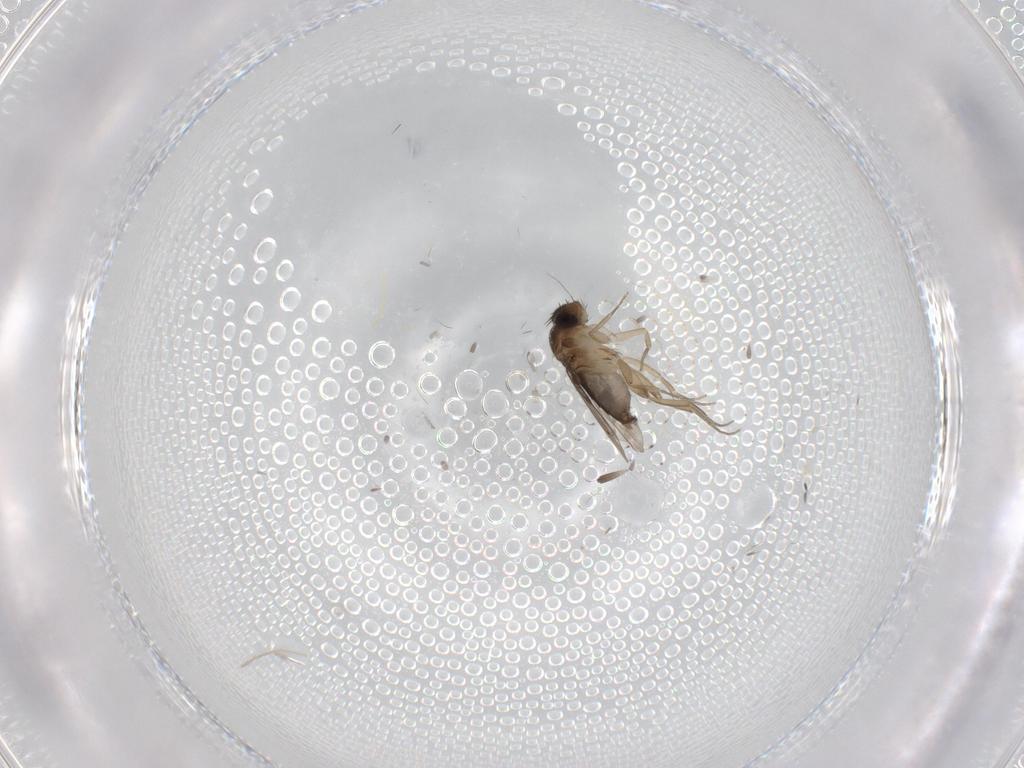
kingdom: Animalia
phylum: Arthropoda
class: Insecta
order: Diptera
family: Phoridae
